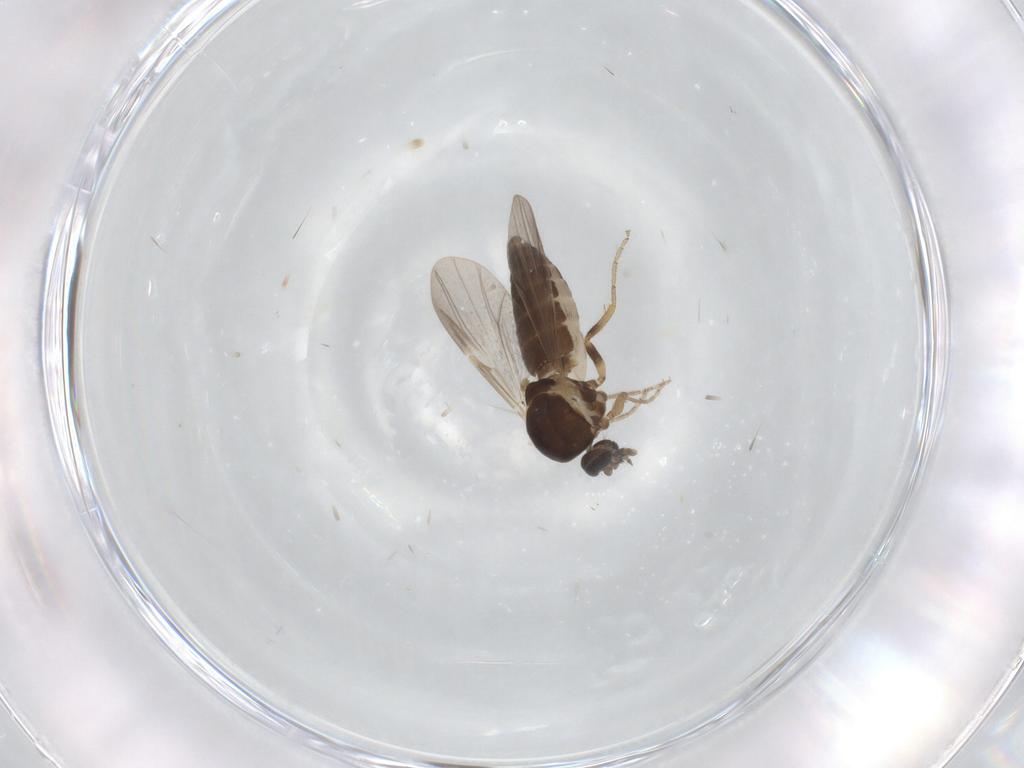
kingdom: Animalia
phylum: Arthropoda
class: Insecta
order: Diptera
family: Ceratopogonidae
